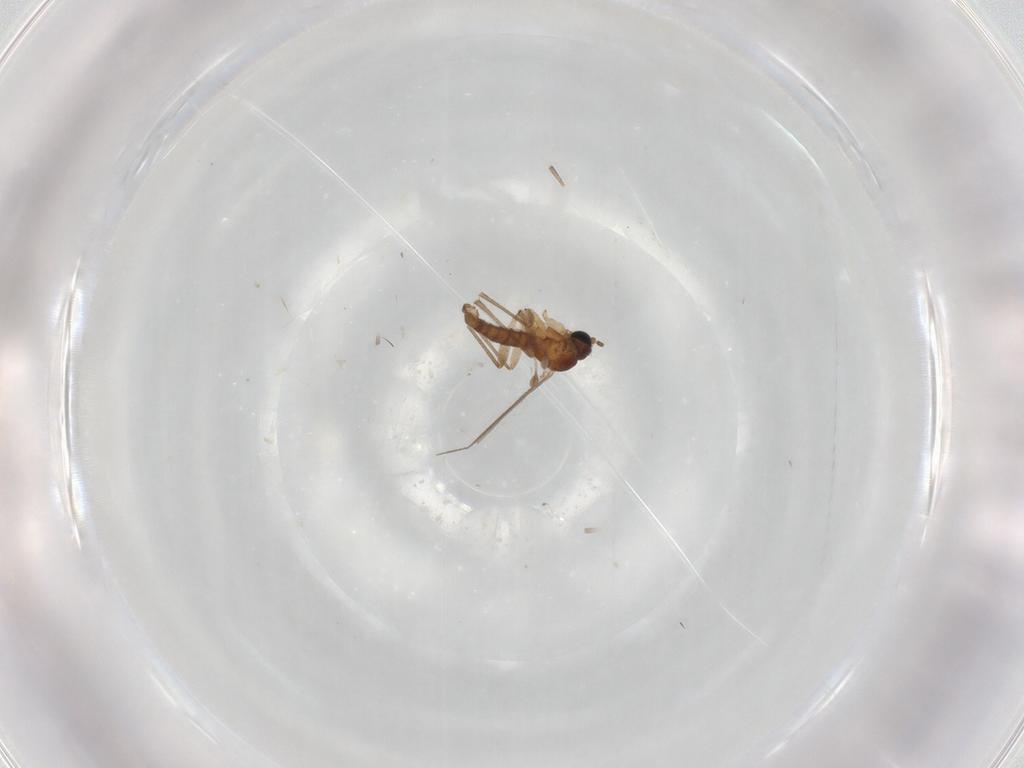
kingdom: Animalia
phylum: Arthropoda
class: Insecta
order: Diptera
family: Sciaridae
